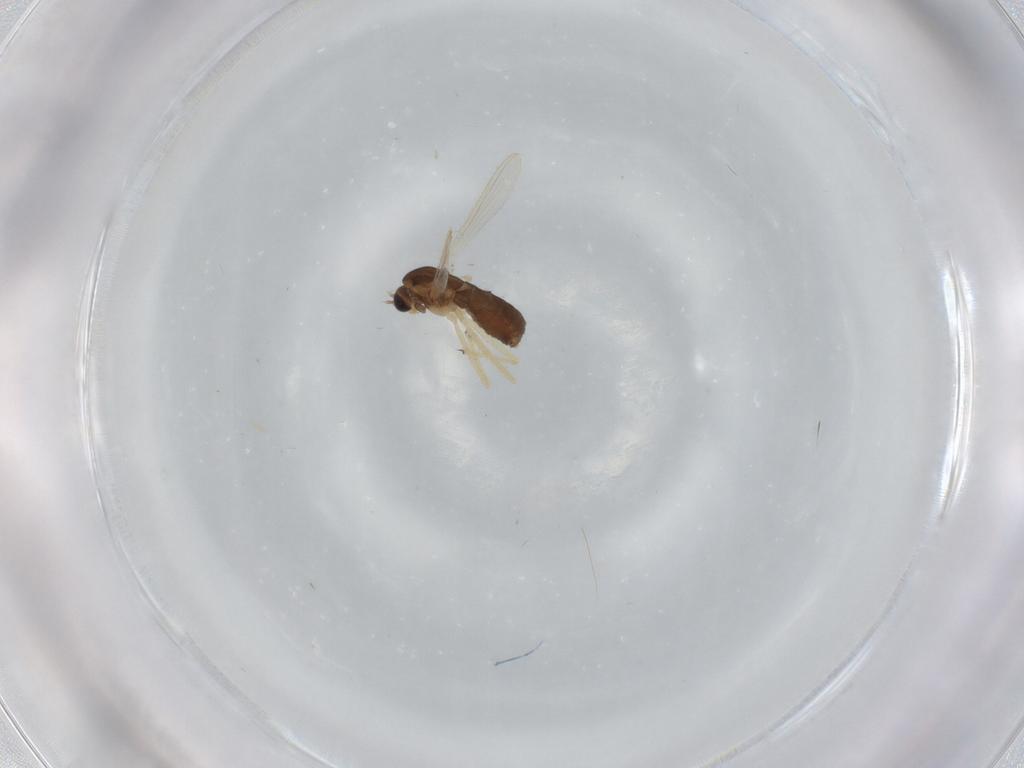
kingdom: Animalia
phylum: Arthropoda
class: Insecta
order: Diptera
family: Chironomidae
